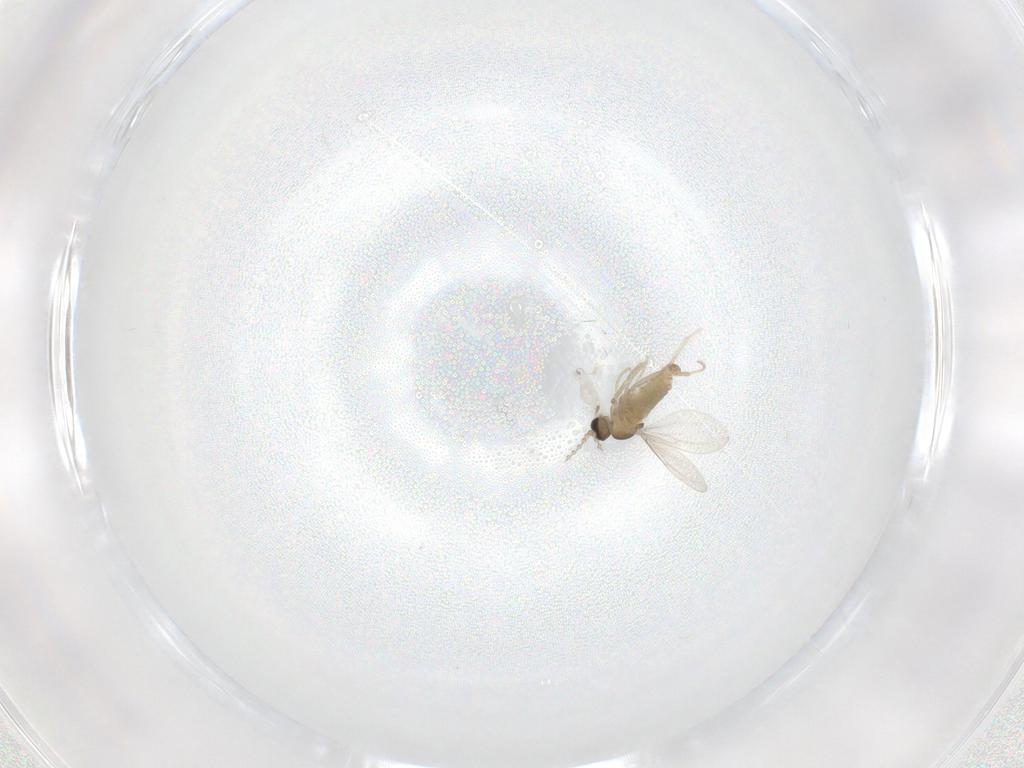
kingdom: Animalia
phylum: Arthropoda
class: Insecta
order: Diptera
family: Cecidomyiidae
